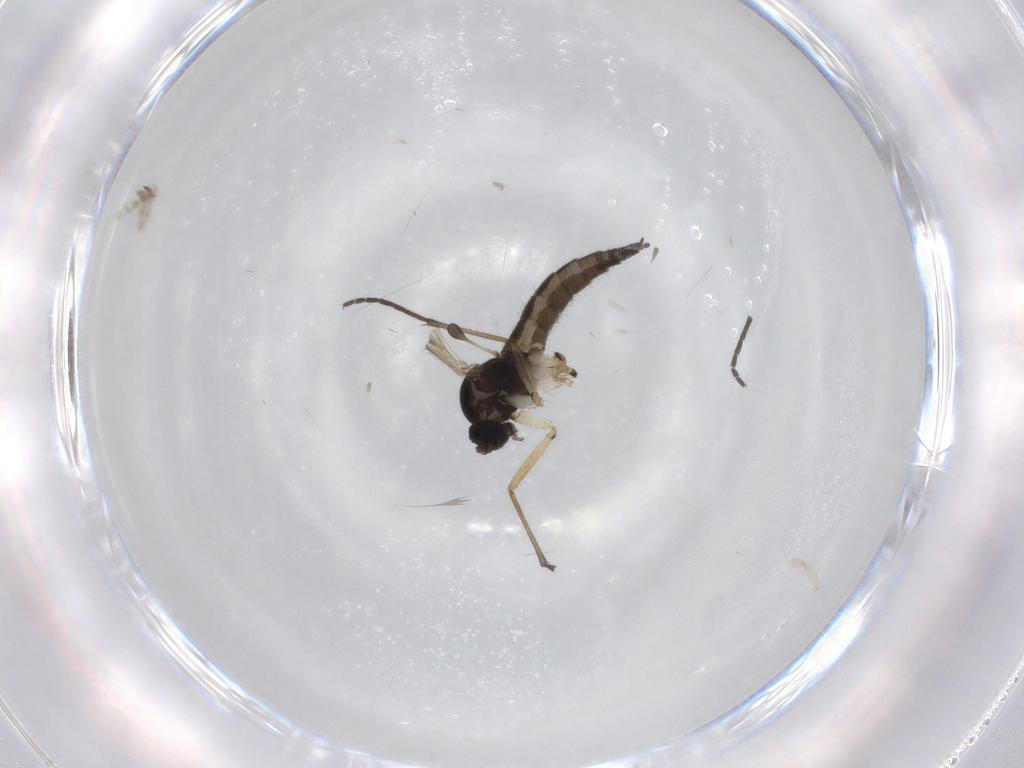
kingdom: Animalia
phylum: Arthropoda
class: Insecta
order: Diptera
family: Sciaridae
